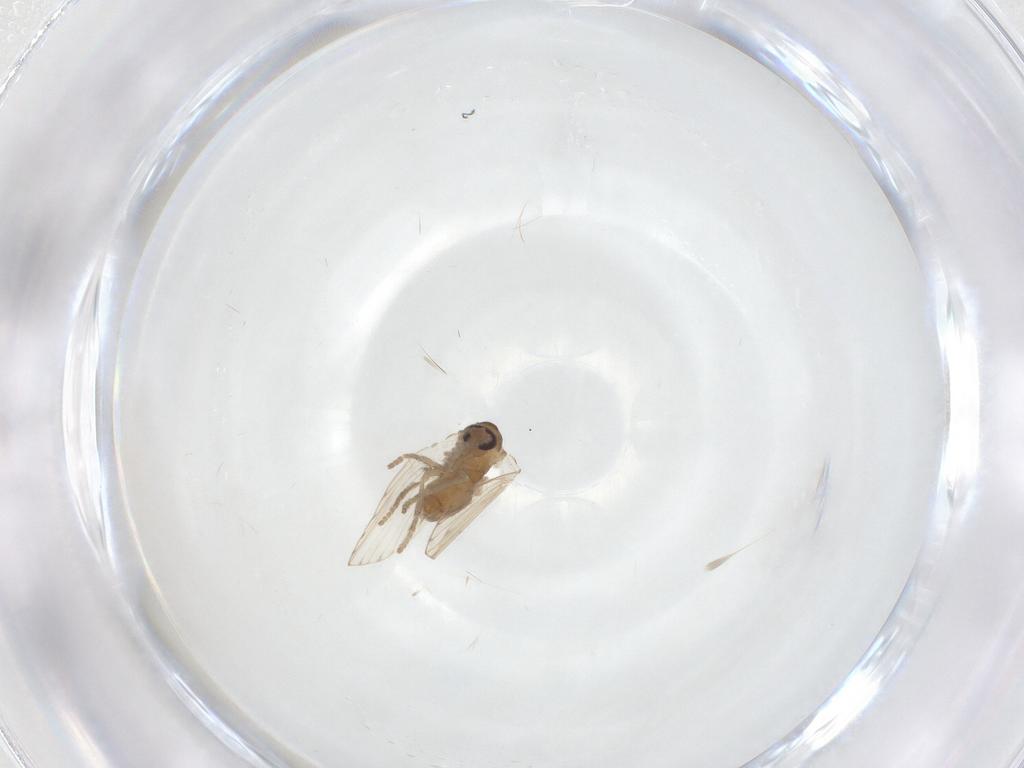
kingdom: Animalia
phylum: Arthropoda
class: Insecta
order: Diptera
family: Psychodidae
